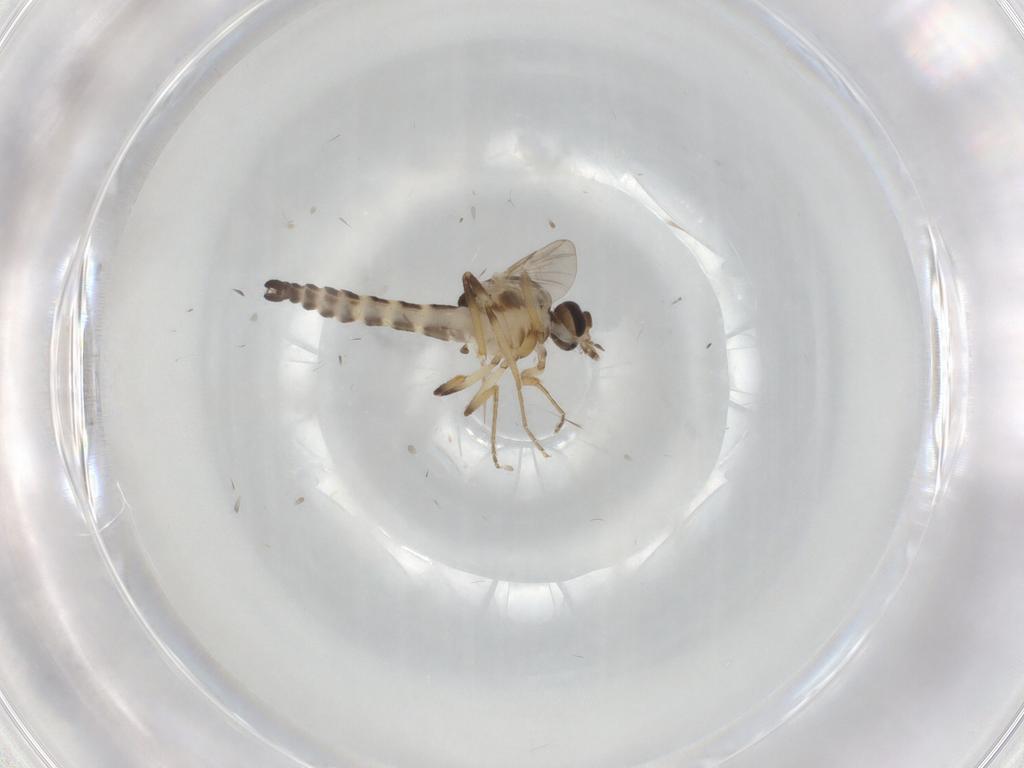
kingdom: Animalia
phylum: Arthropoda
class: Insecta
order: Diptera
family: Ceratopogonidae
